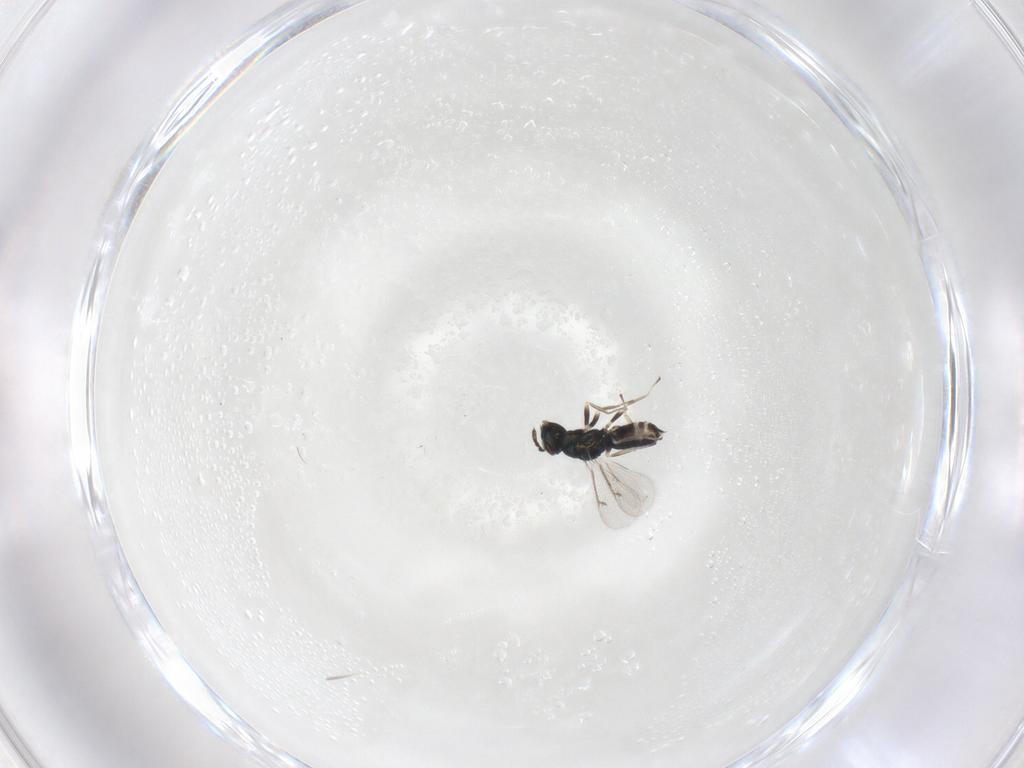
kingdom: Animalia
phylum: Arthropoda
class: Insecta
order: Hymenoptera
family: Eulophidae
